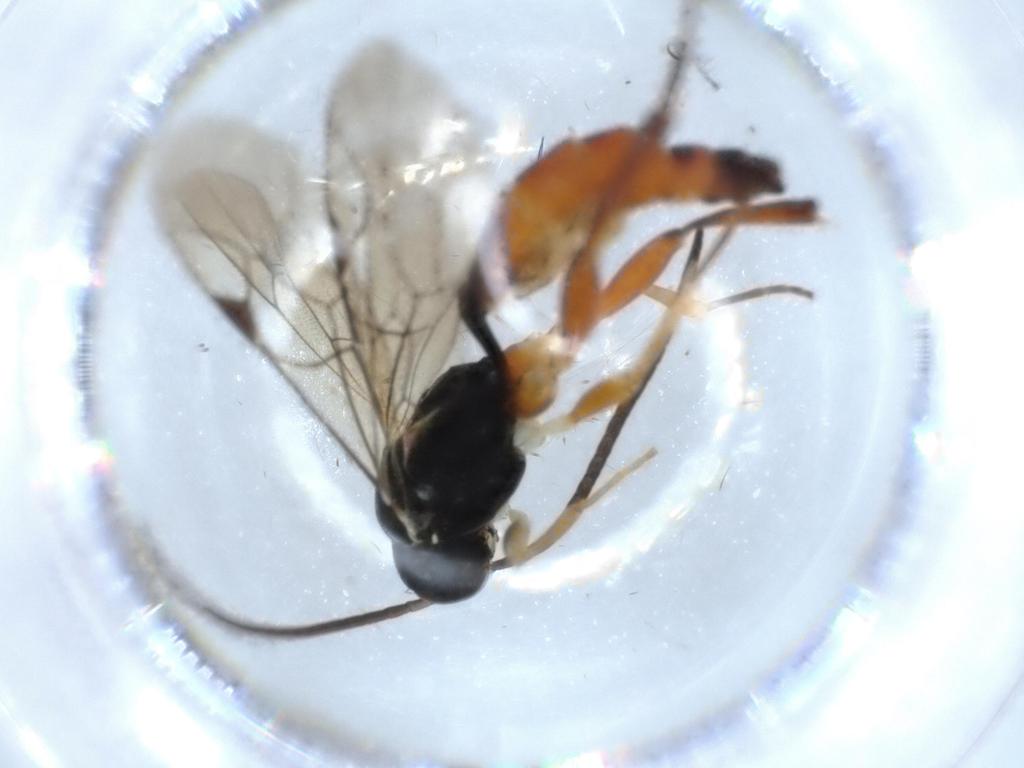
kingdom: Animalia
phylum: Arthropoda
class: Insecta
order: Hymenoptera
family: Ichneumonidae
